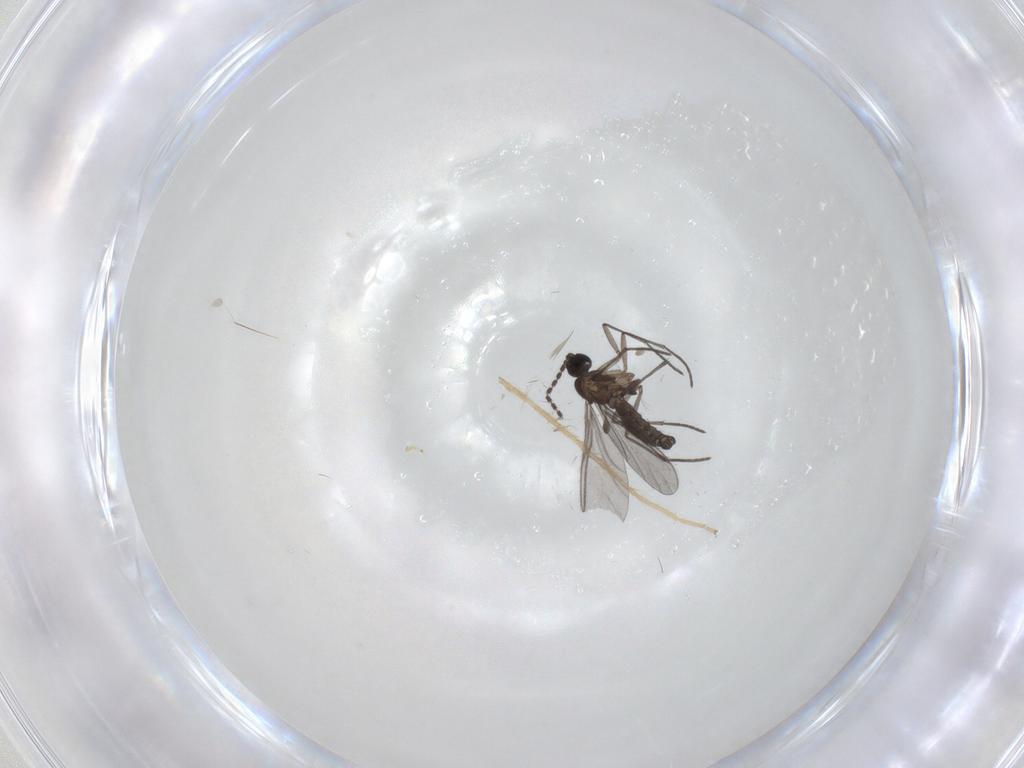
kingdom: Animalia
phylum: Arthropoda
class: Insecta
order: Diptera
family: Chironomidae
